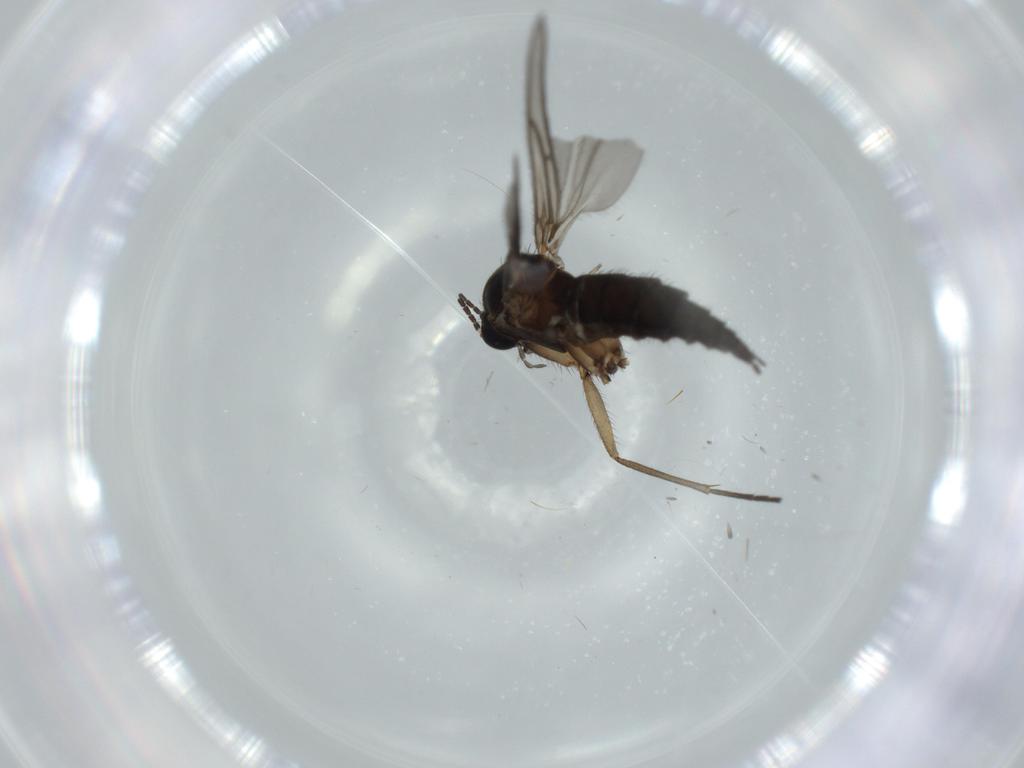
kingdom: Animalia
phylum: Arthropoda
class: Insecta
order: Diptera
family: Sciaridae
